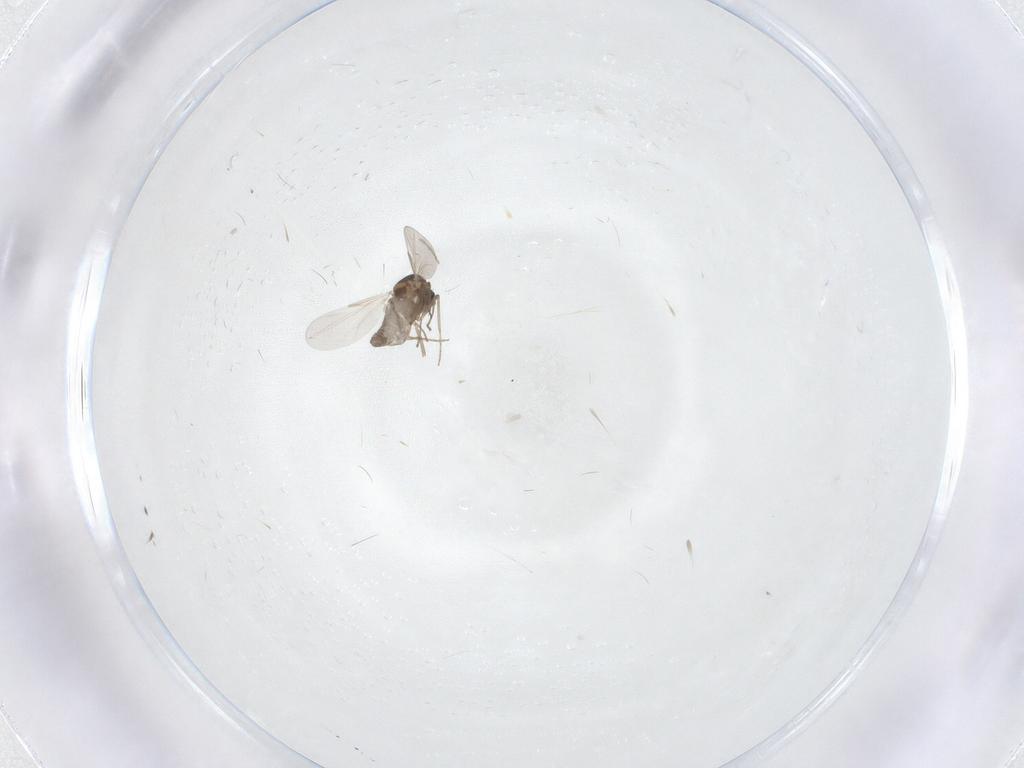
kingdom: Animalia
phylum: Arthropoda
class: Insecta
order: Diptera
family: Ceratopogonidae
